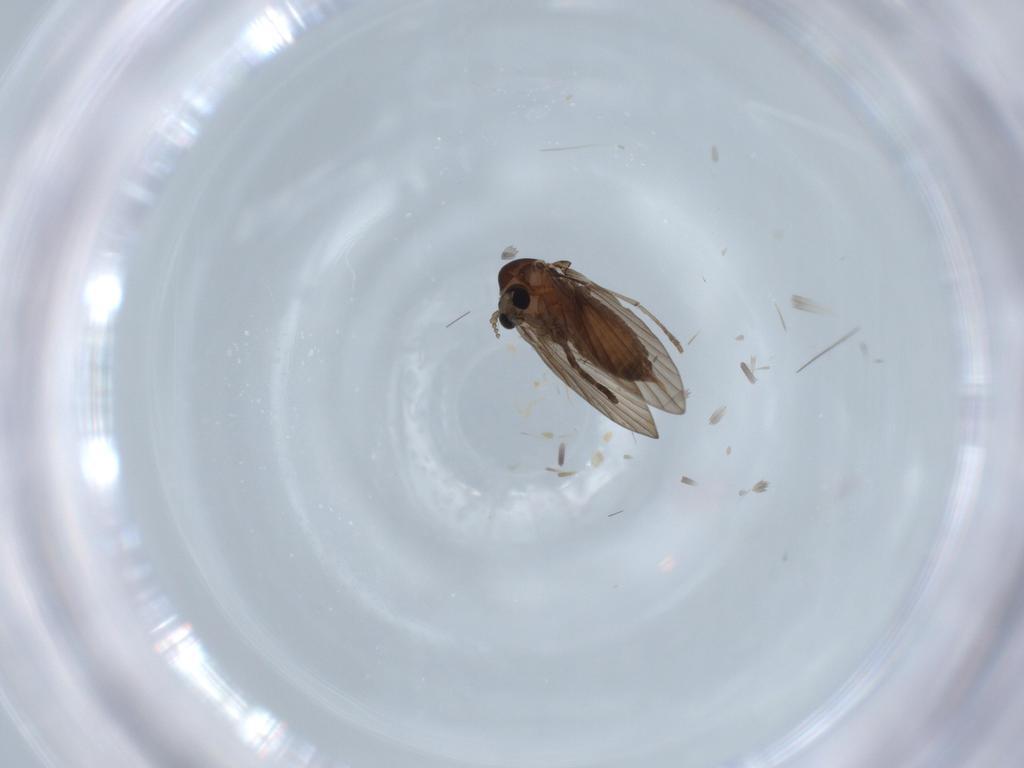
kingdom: Animalia
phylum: Arthropoda
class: Insecta
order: Diptera
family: Psychodidae
